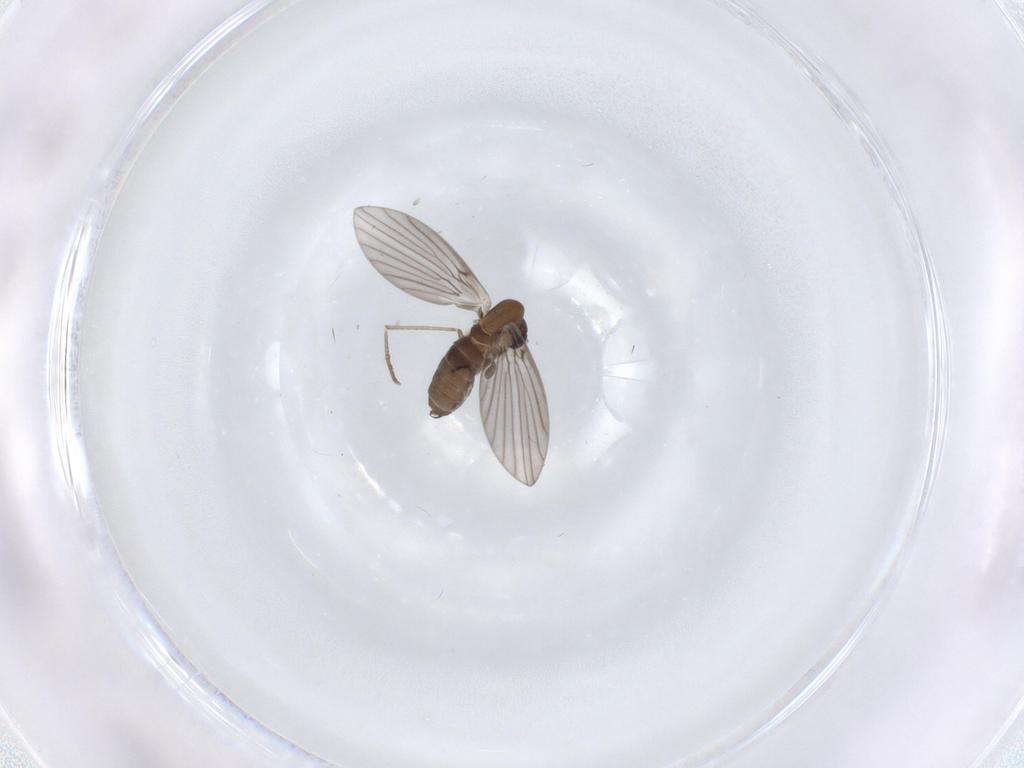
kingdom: Animalia
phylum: Arthropoda
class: Insecta
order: Diptera
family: Psychodidae
